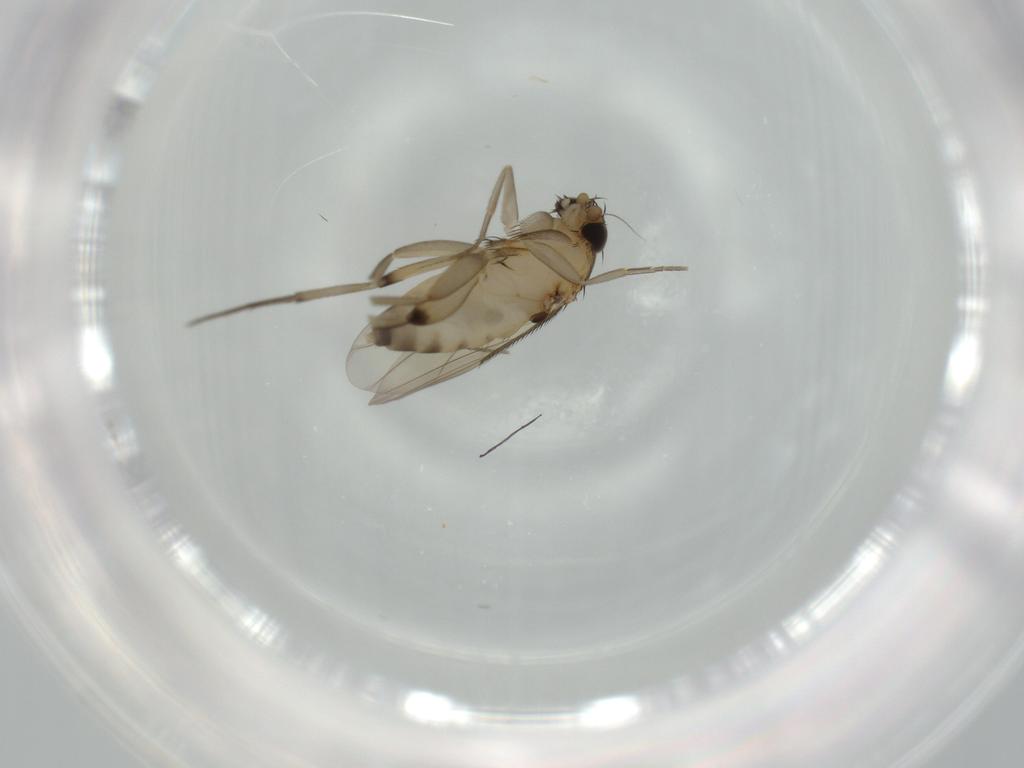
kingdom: Animalia
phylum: Arthropoda
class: Insecta
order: Diptera
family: Phoridae
